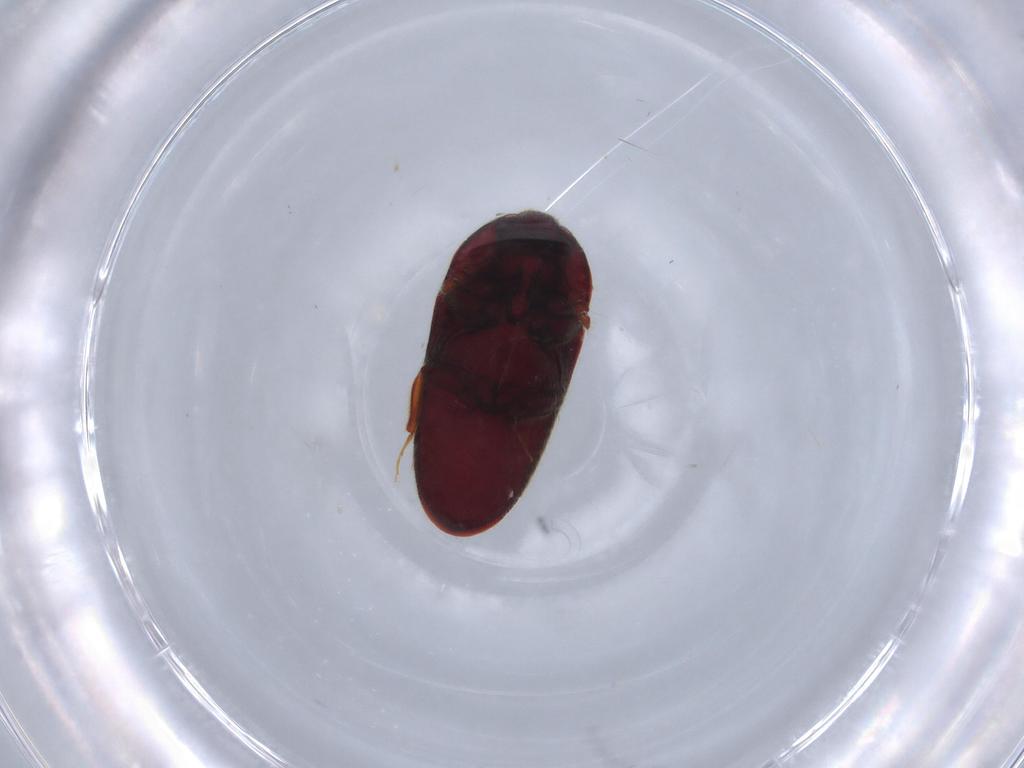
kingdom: Animalia
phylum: Arthropoda
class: Insecta
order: Coleoptera
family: Throscidae
